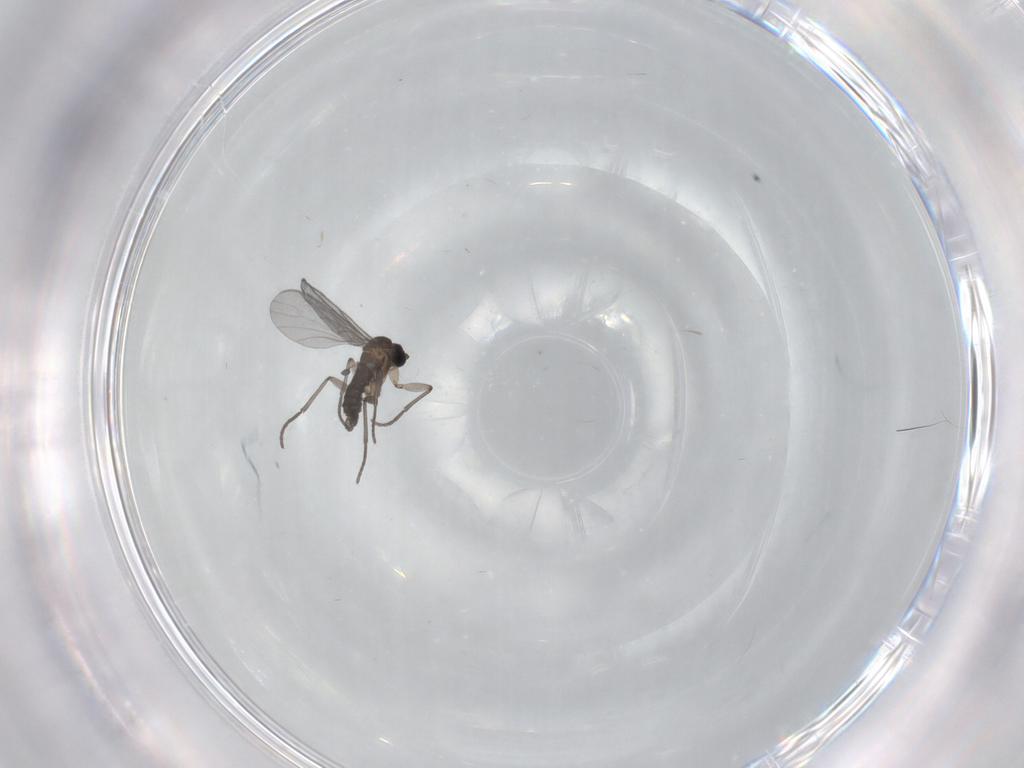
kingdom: Animalia
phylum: Arthropoda
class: Insecta
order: Diptera
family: Sciaridae
